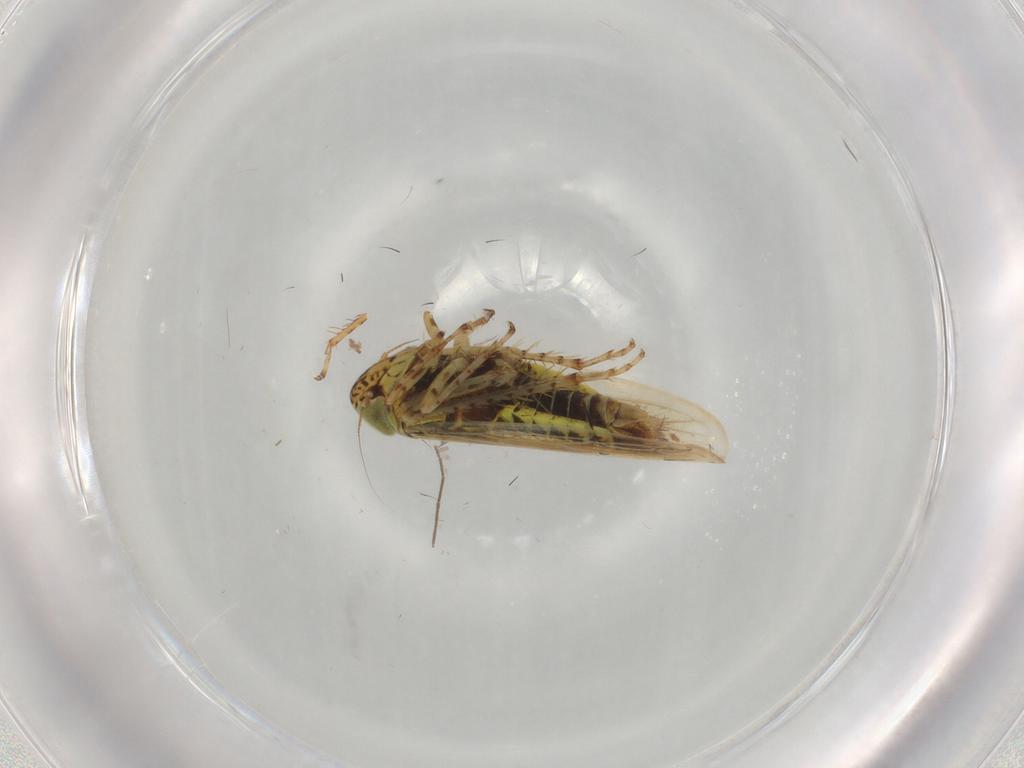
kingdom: Animalia
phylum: Arthropoda
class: Insecta
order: Hemiptera
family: Cicadellidae
